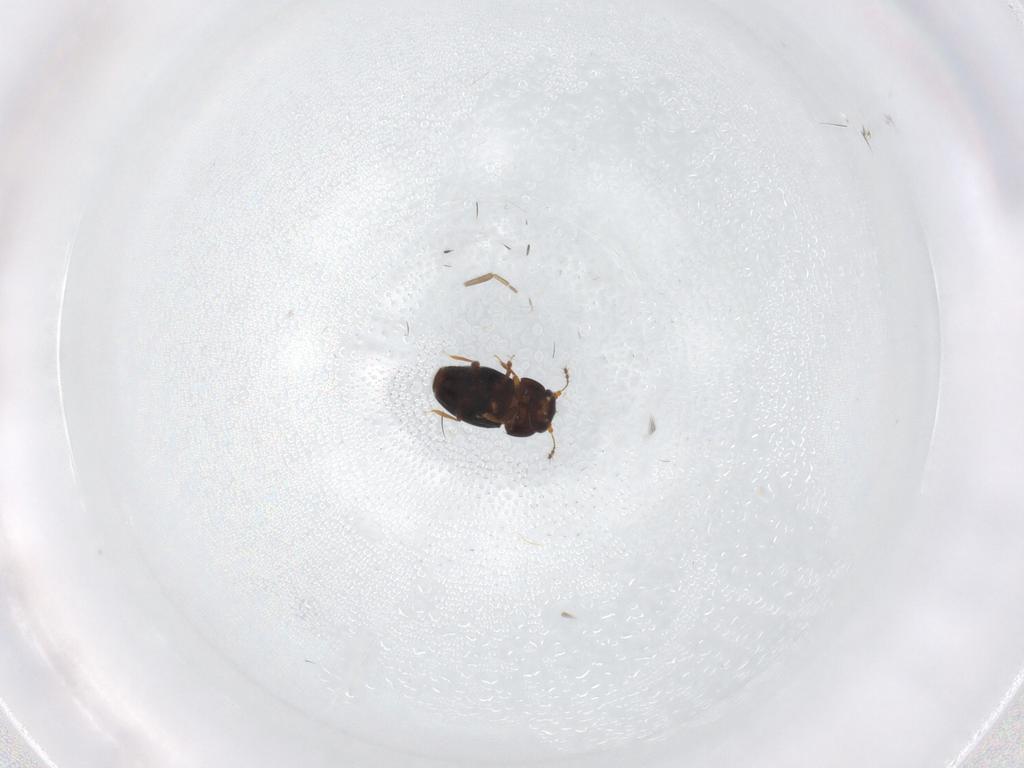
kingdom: Animalia
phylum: Arthropoda
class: Insecta
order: Coleoptera
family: Ptiliidae
